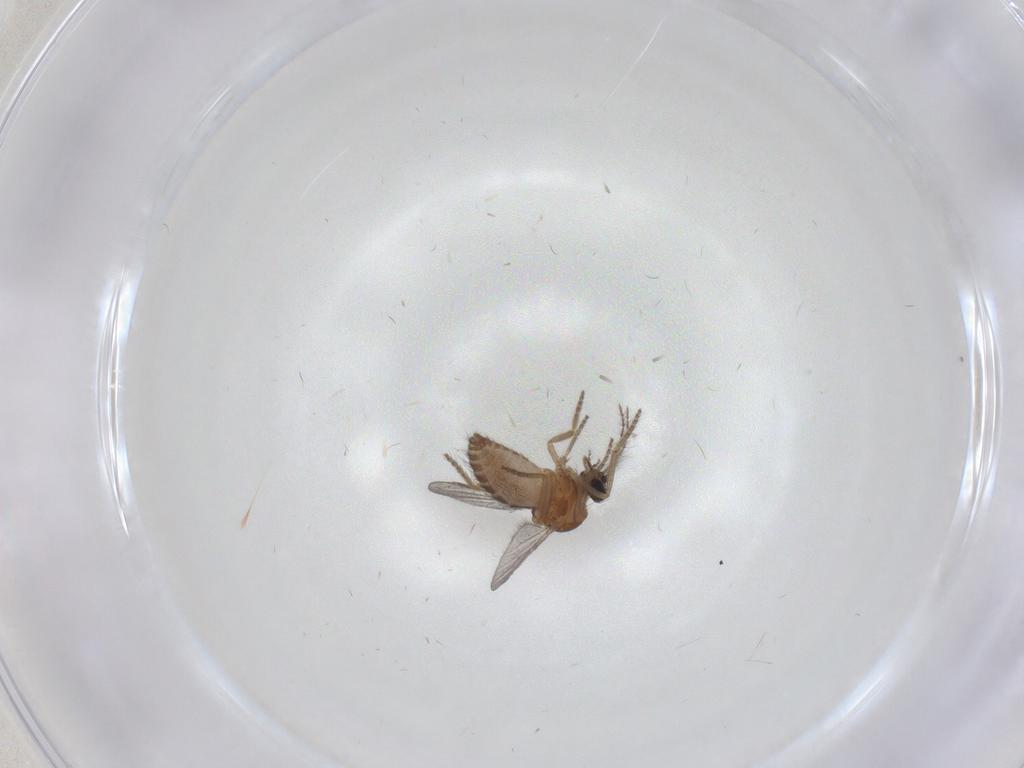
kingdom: Animalia
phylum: Arthropoda
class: Insecta
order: Diptera
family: Ceratopogonidae
